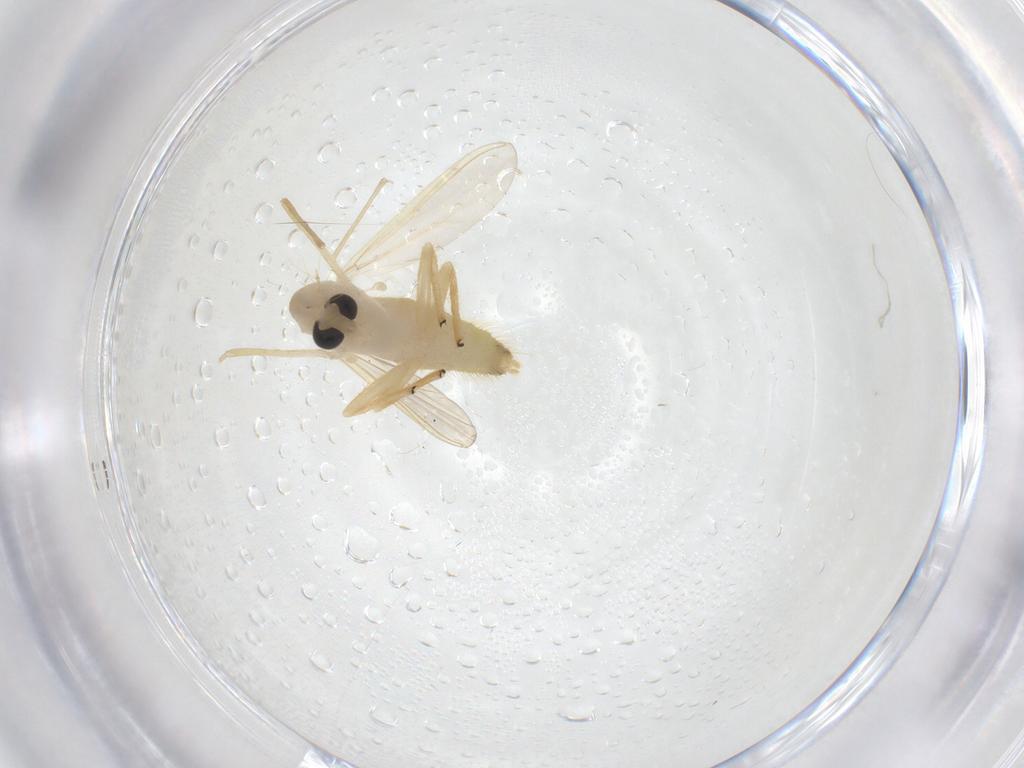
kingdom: Animalia
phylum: Arthropoda
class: Insecta
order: Diptera
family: Chironomidae
